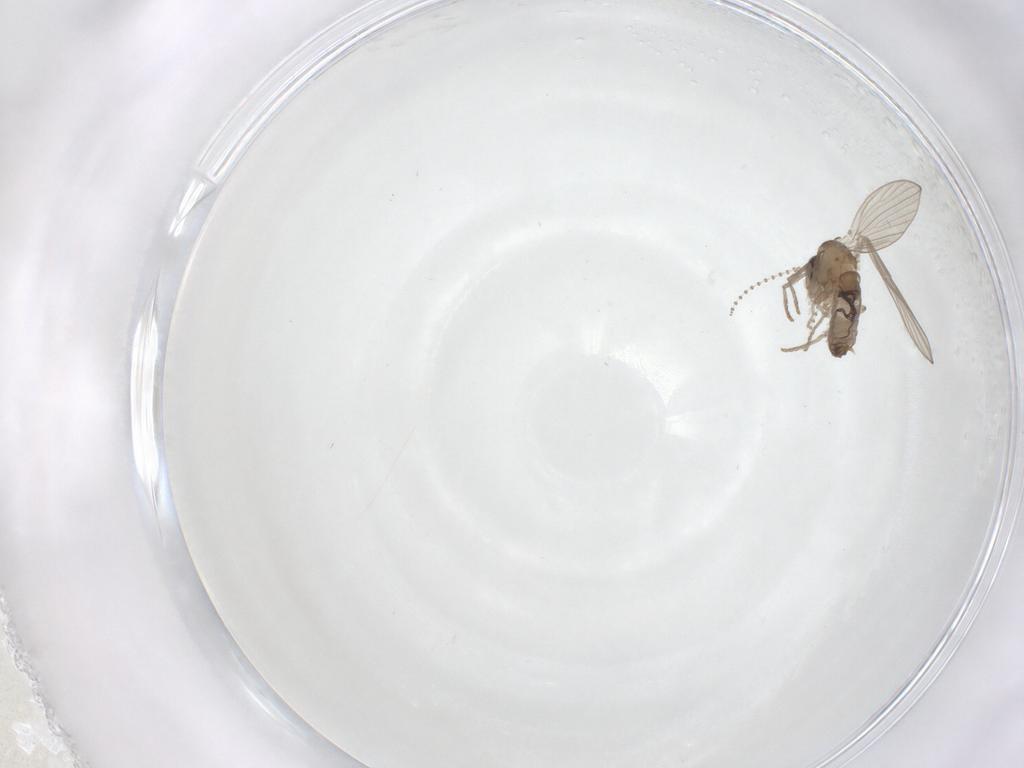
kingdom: Animalia
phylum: Arthropoda
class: Insecta
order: Diptera
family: Psychodidae
